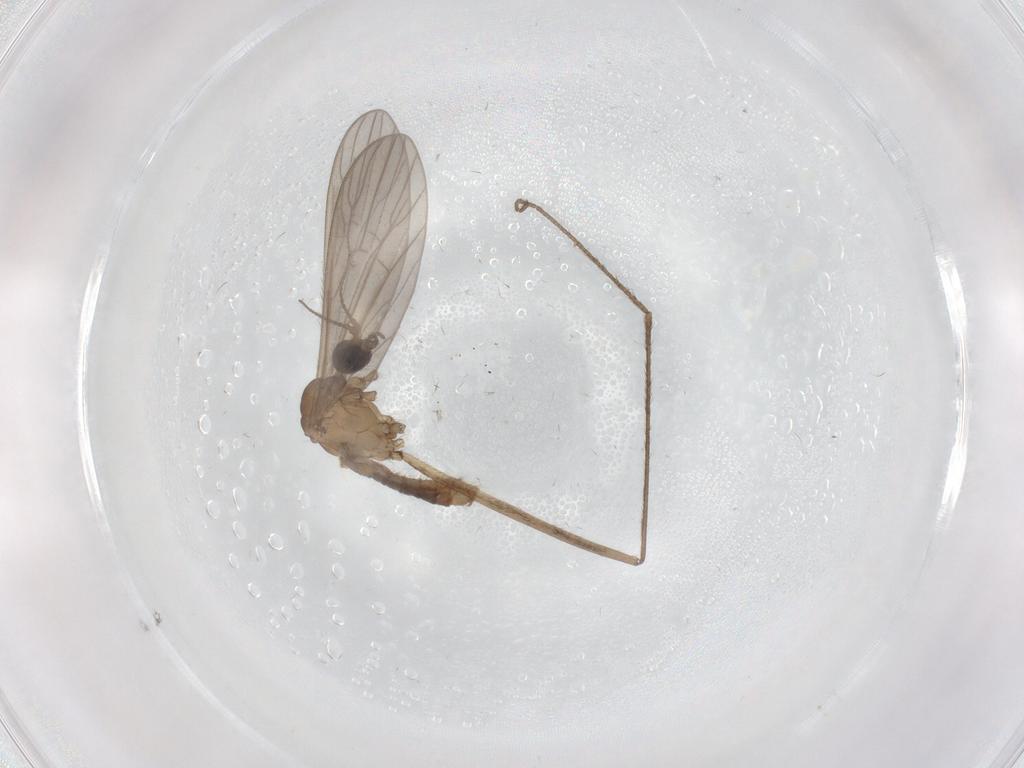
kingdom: Animalia
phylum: Arthropoda
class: Insecta
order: Diptera
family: Limoniidae
